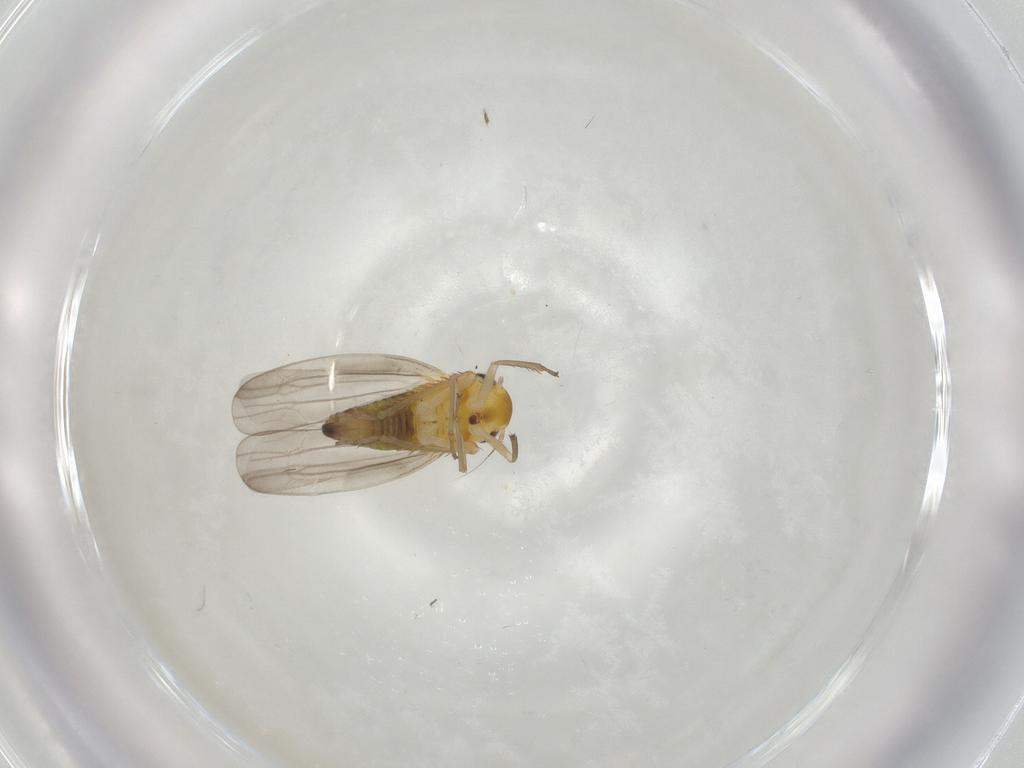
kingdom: Animalia
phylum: Arthropoda
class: Insecta
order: Hemiptera
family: Cicadellidae
